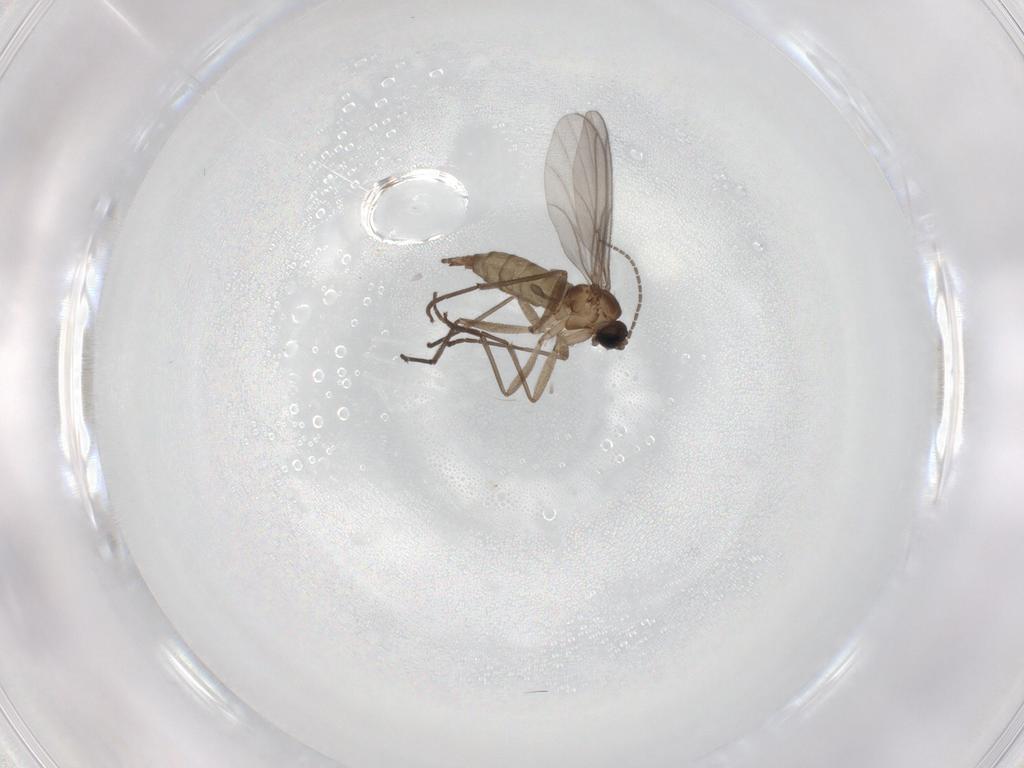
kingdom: Animalia
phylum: Arthropoda
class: Insecta
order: Diptera
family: Sciaridae
